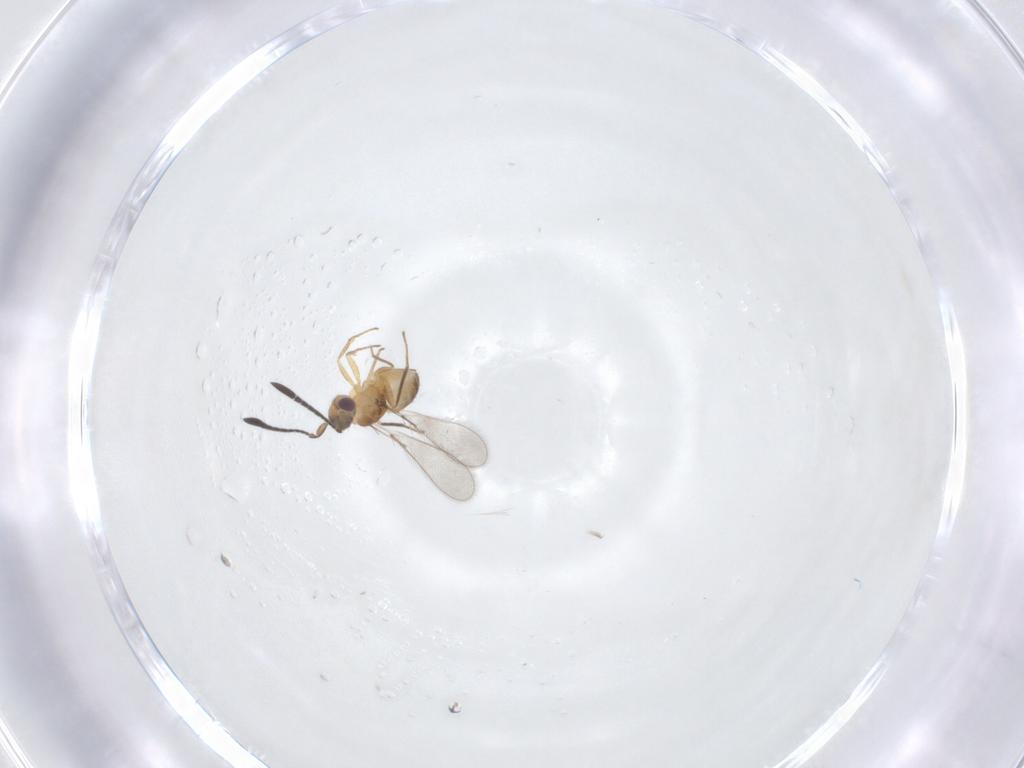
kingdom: Animalia
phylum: Arthropoda
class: Insecta
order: Hymenoptera
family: Mymaridae
